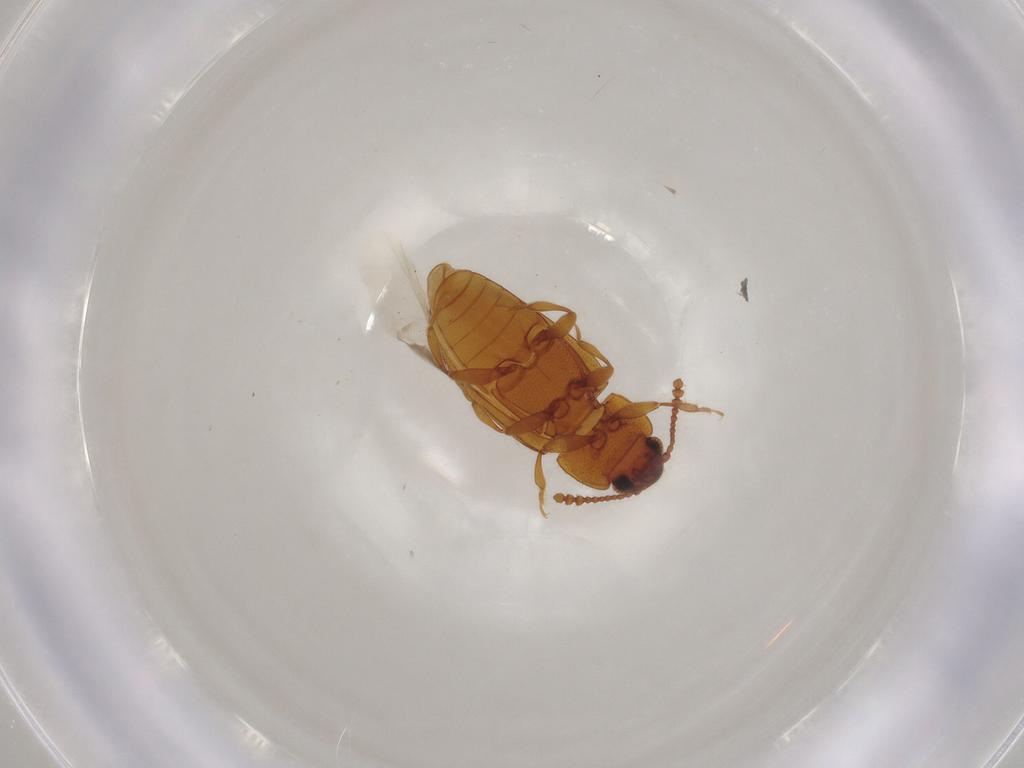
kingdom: Animalia
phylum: Arthropoda
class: Insecta
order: Coleoptera
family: Erotylidae
